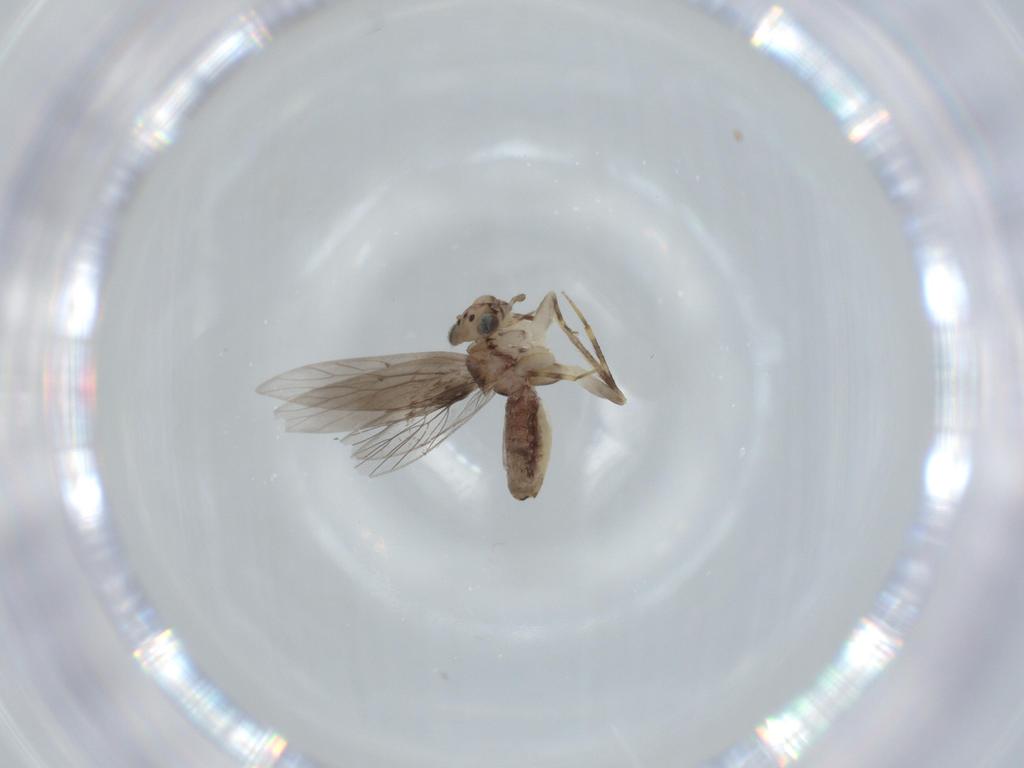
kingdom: Animalia
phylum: Arthropoda
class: Insecta
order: Psocodea
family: Lepidopsocidae
